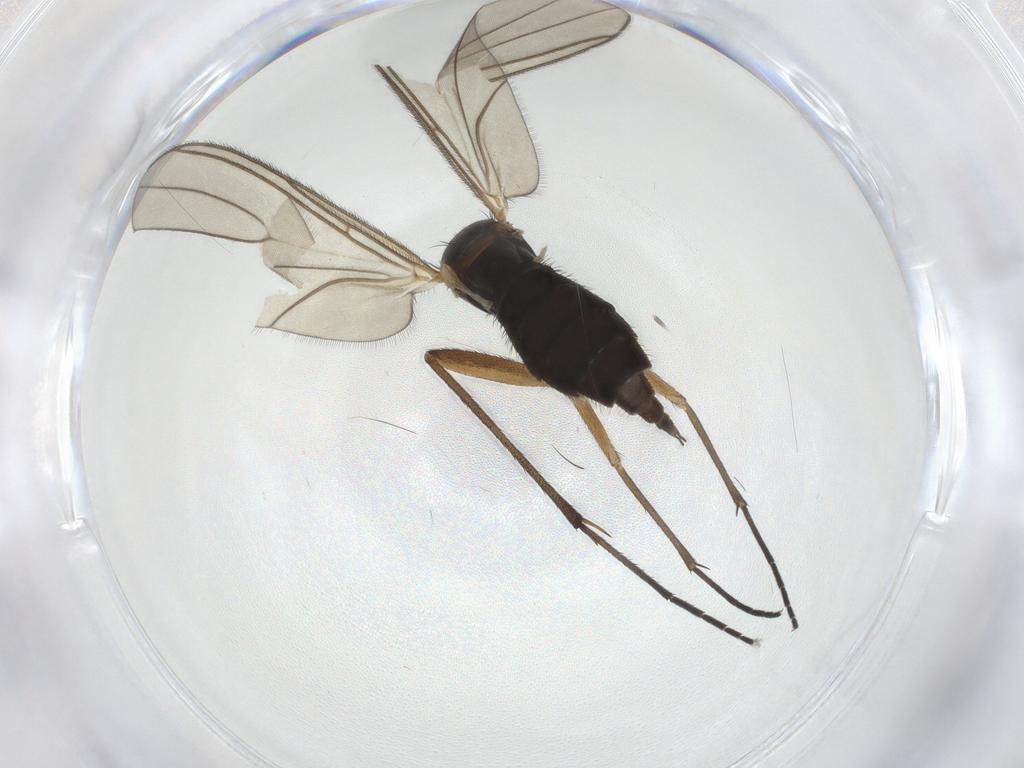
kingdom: Animalia
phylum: Arthropoda
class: Insecta
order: Diptera
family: Sciaridae
